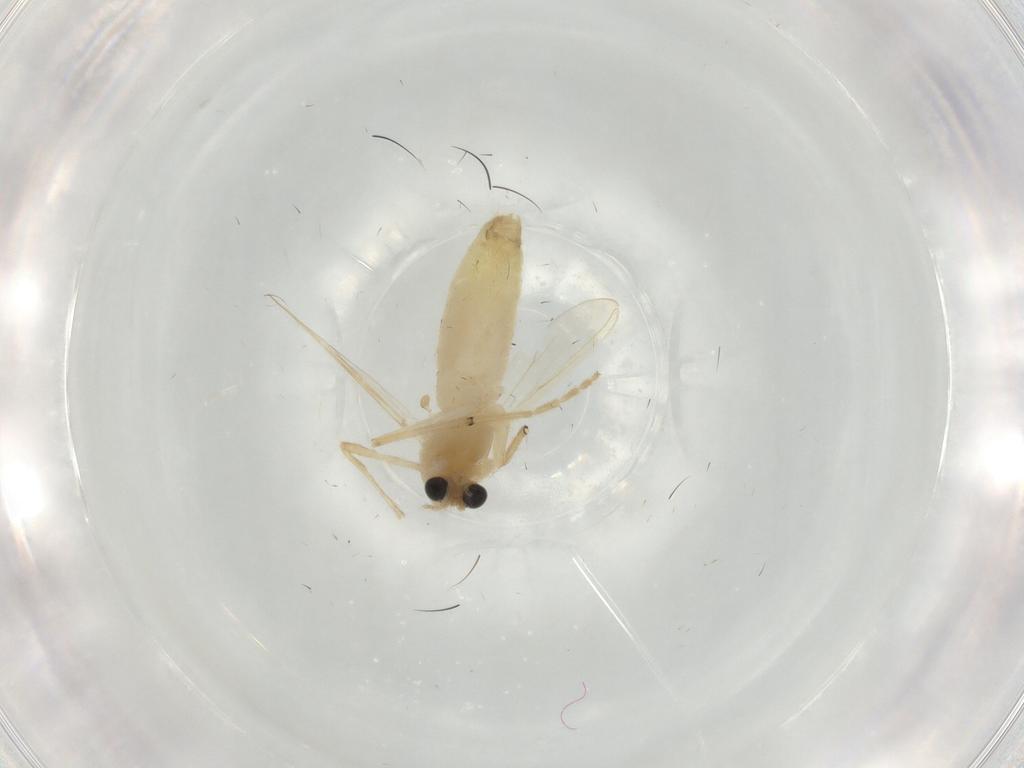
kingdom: Animalia
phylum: Arthropoda
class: Insecta
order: Diptera
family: Chironomidae
